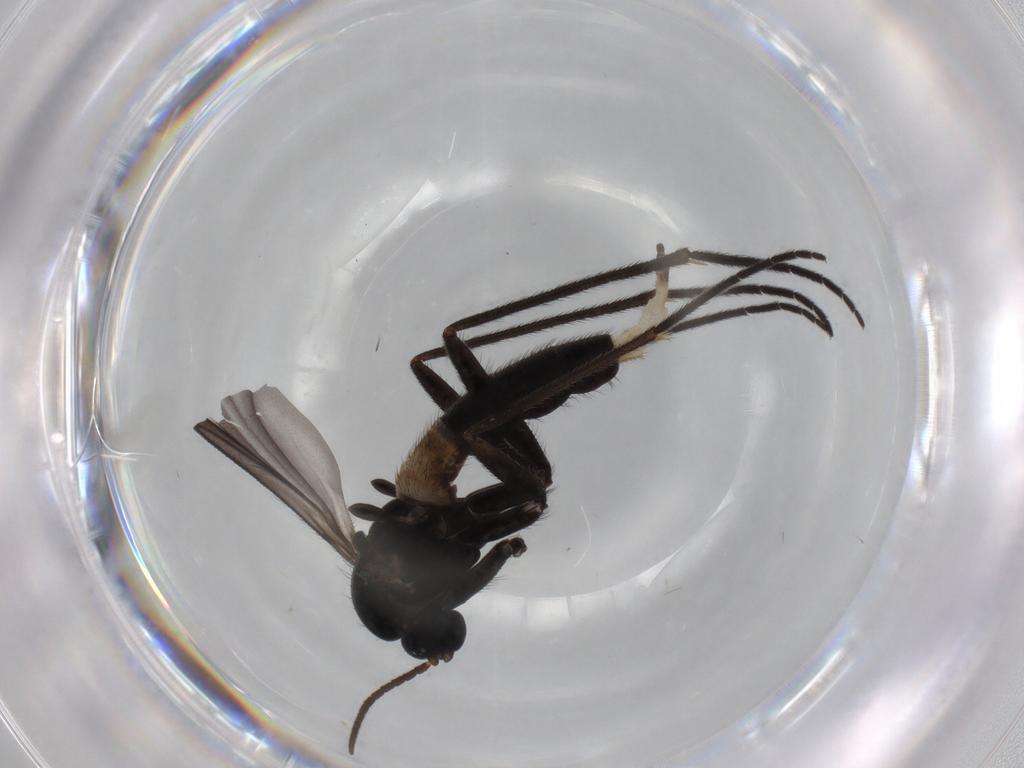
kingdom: Animalia
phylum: Arthropoda
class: Insecta
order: Diptera
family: Sciaridae
